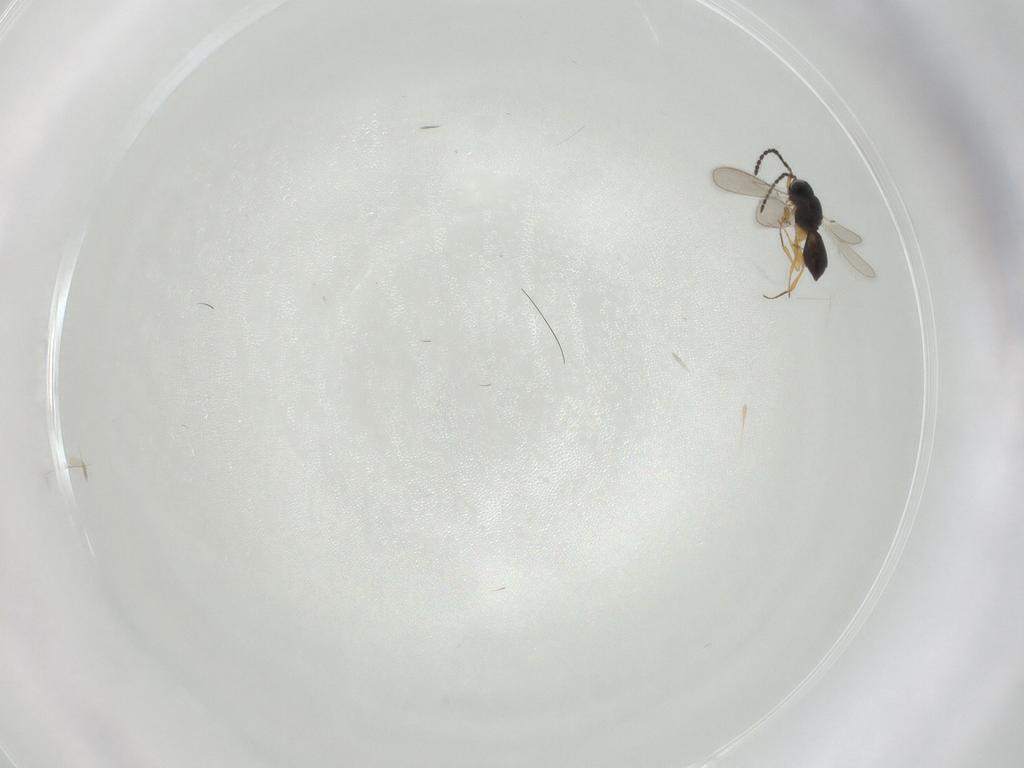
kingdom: Animalia
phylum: Arthropoda
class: Insecta
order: Hymenoptera
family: Scelionidae
